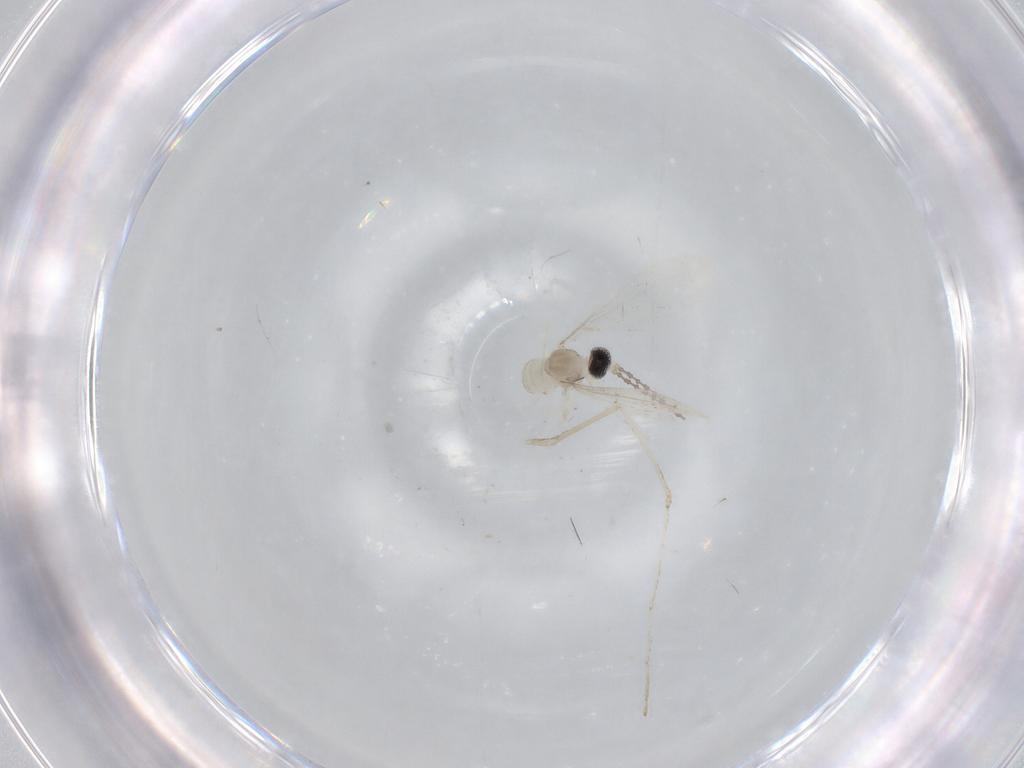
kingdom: Animalia
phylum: Arthropoda
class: Insecta
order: Diptera
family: Cecidomyiidae
